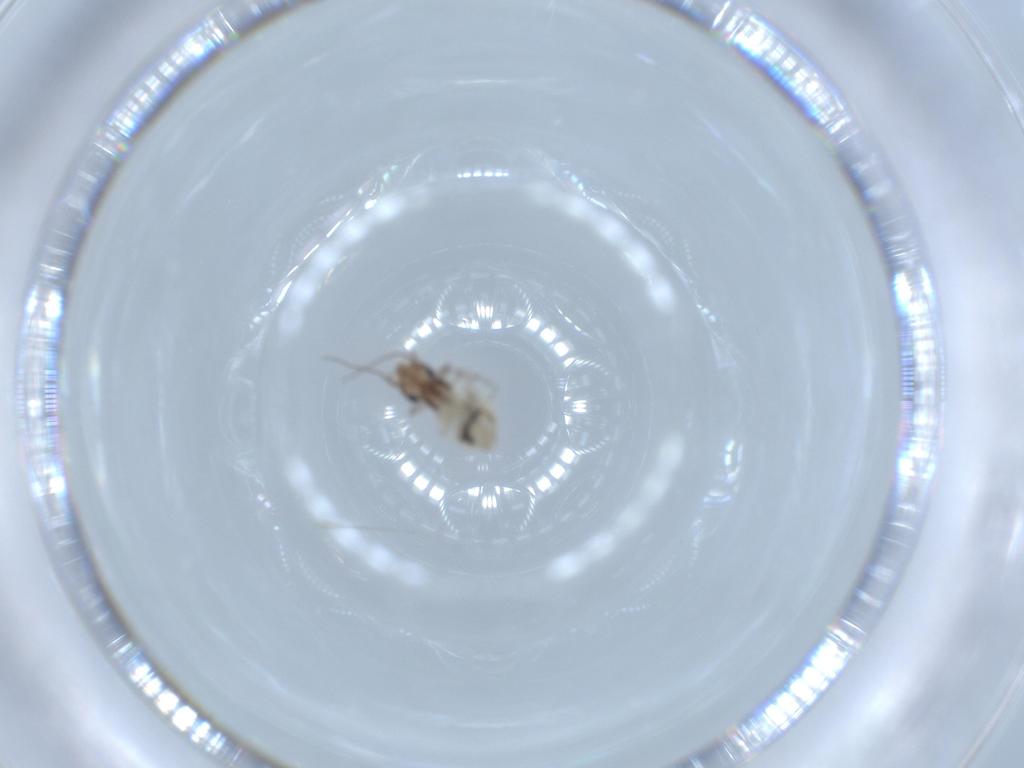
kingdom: Animalia
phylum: Arthropoda
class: Insecta
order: Psocodea
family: Lepidopsocidae
